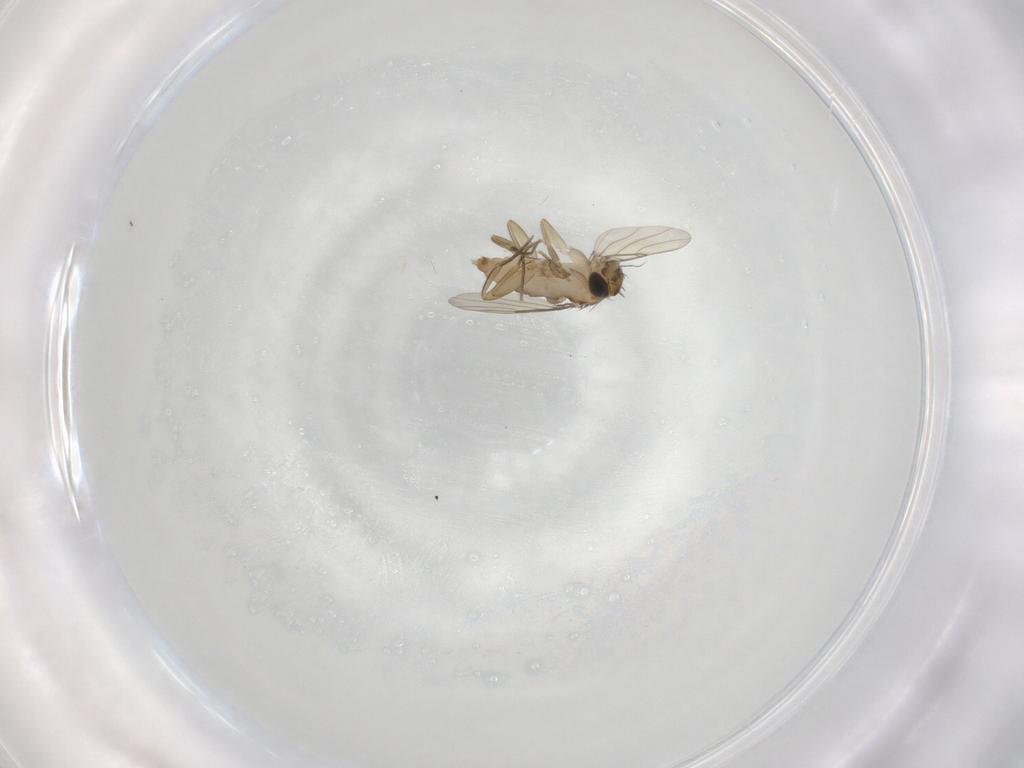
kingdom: Animalia
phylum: Arthropoda
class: Insecta
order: Diptera
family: Phoridae
